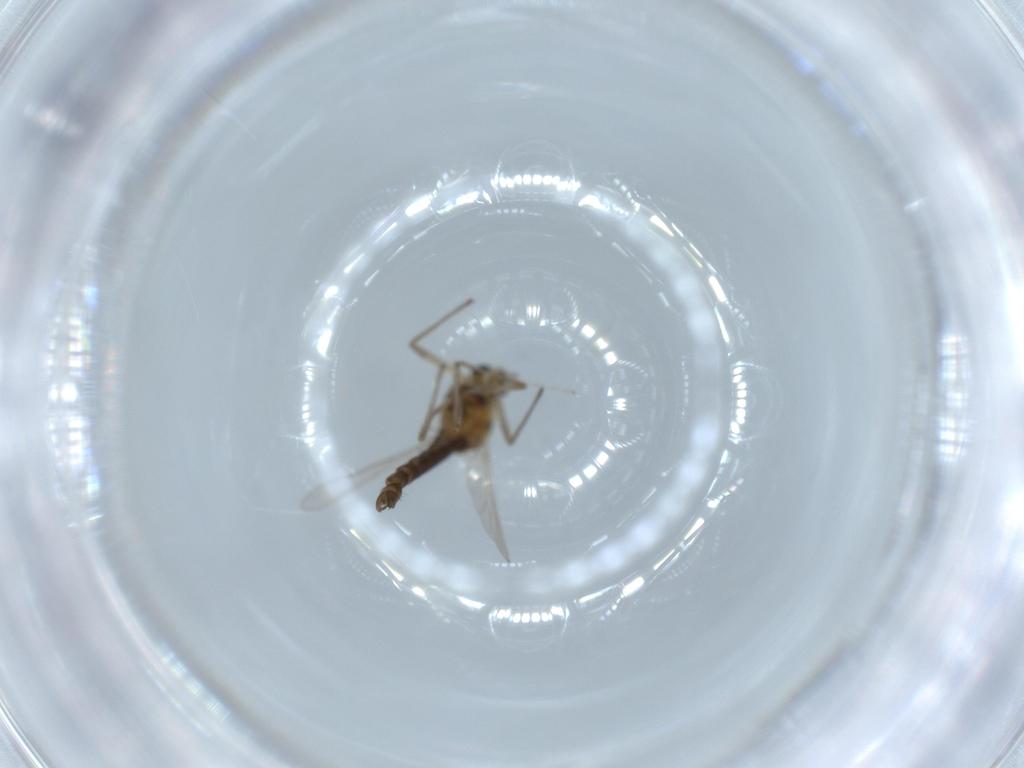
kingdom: Animalia
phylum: Arthropoda
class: Insecta
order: Diptera
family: Chironomidae
